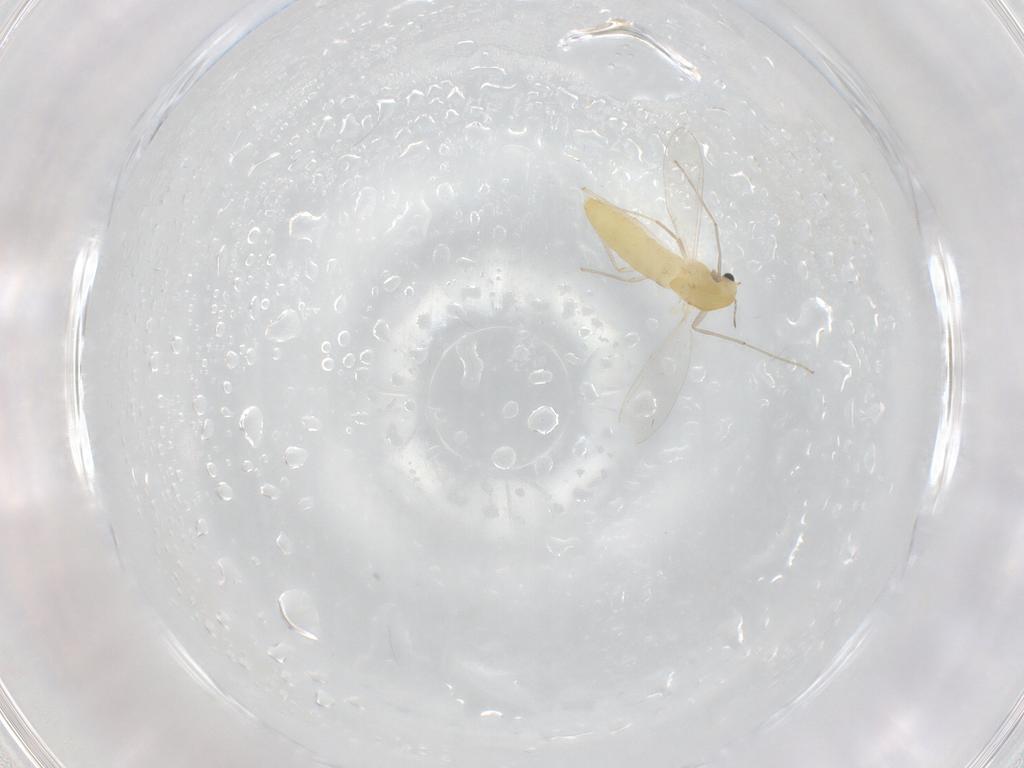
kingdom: Animalia
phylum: Arthropoda
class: Insecta
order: Diptera
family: Chironomidae
